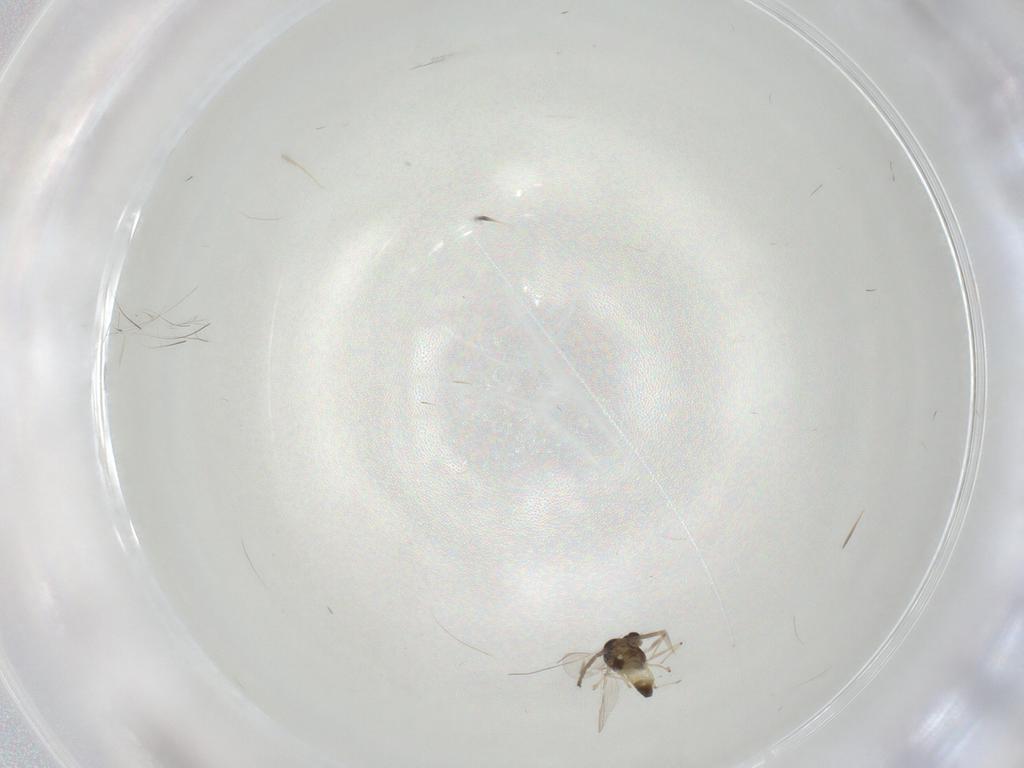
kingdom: Animalia
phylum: Arthropoda
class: Insecta
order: Diptera
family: Chironomidae
